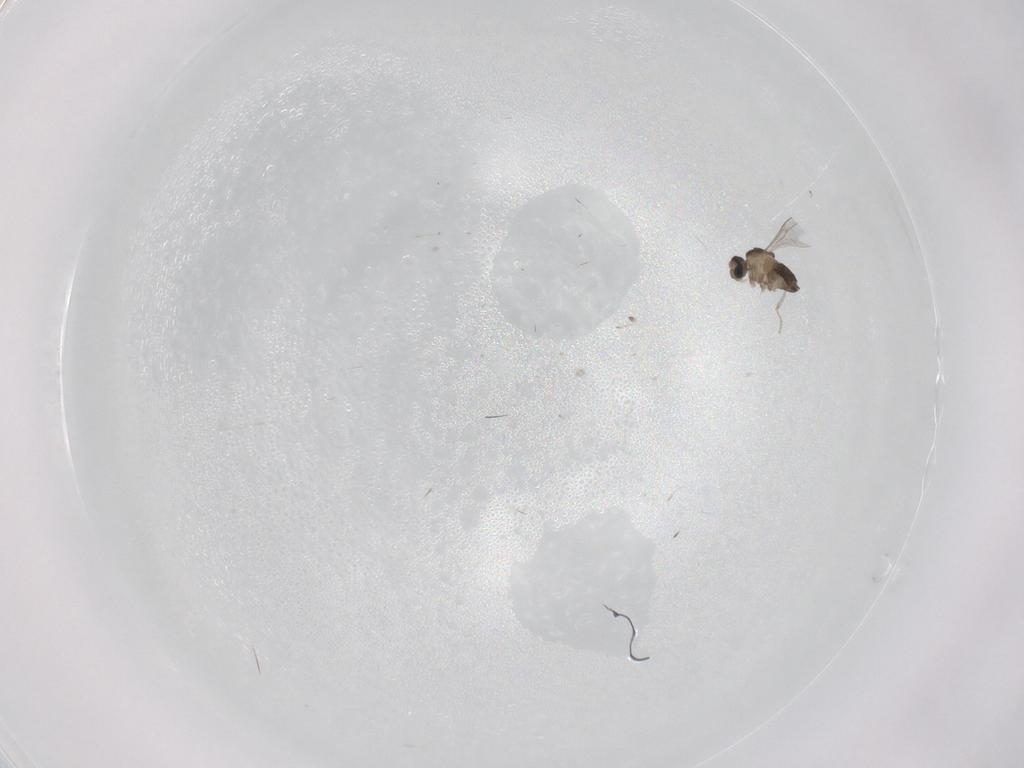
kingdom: Animalia
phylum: Arthropoda
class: Insecta
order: Diptera
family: Cecidomyiidae
